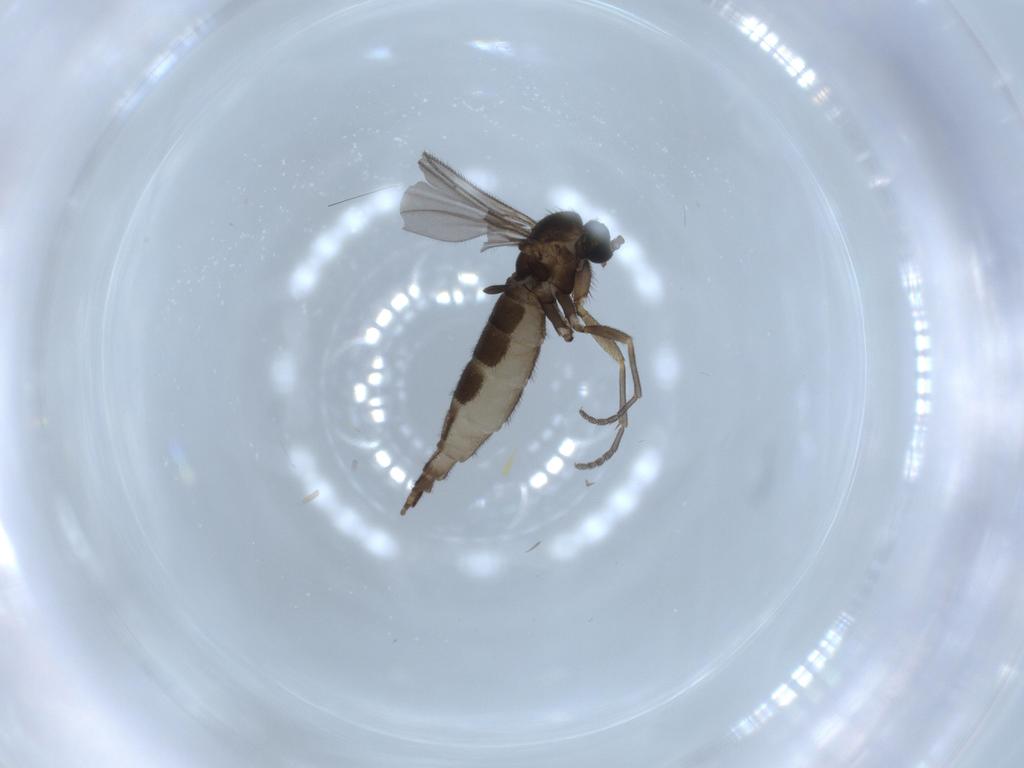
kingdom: Animalia
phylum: Arthropoda
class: Insecta
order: Diptera
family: Sciaridae
